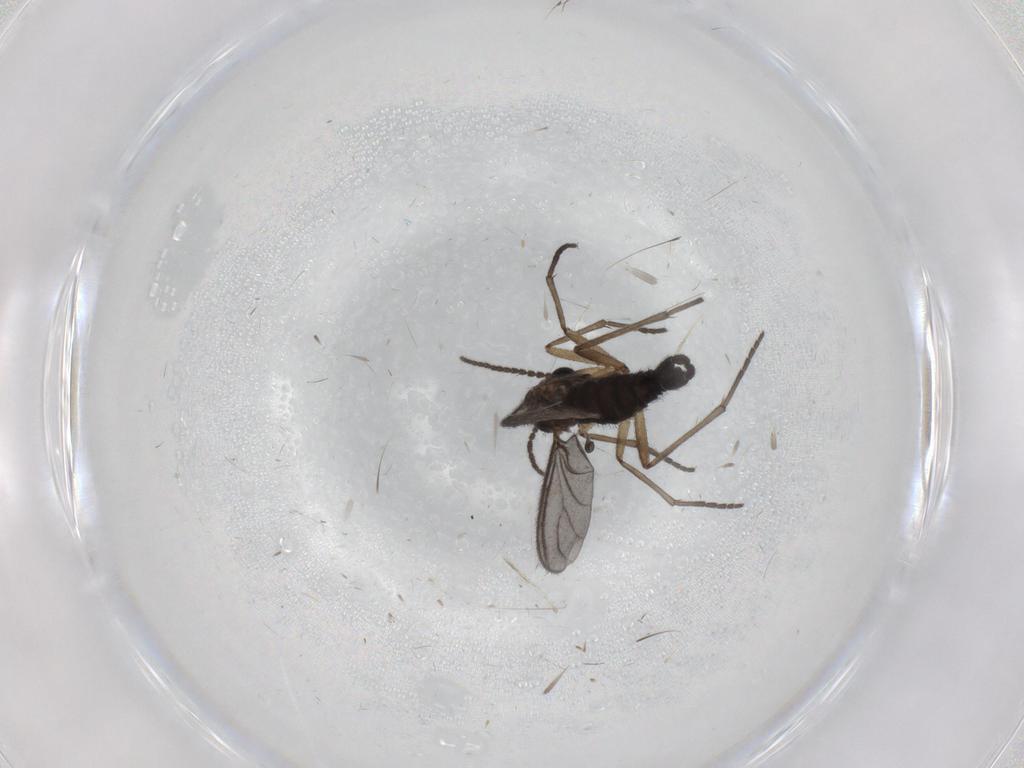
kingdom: Animalia
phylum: Arthropoda
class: Insecta
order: Diptera
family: Sciaridae
